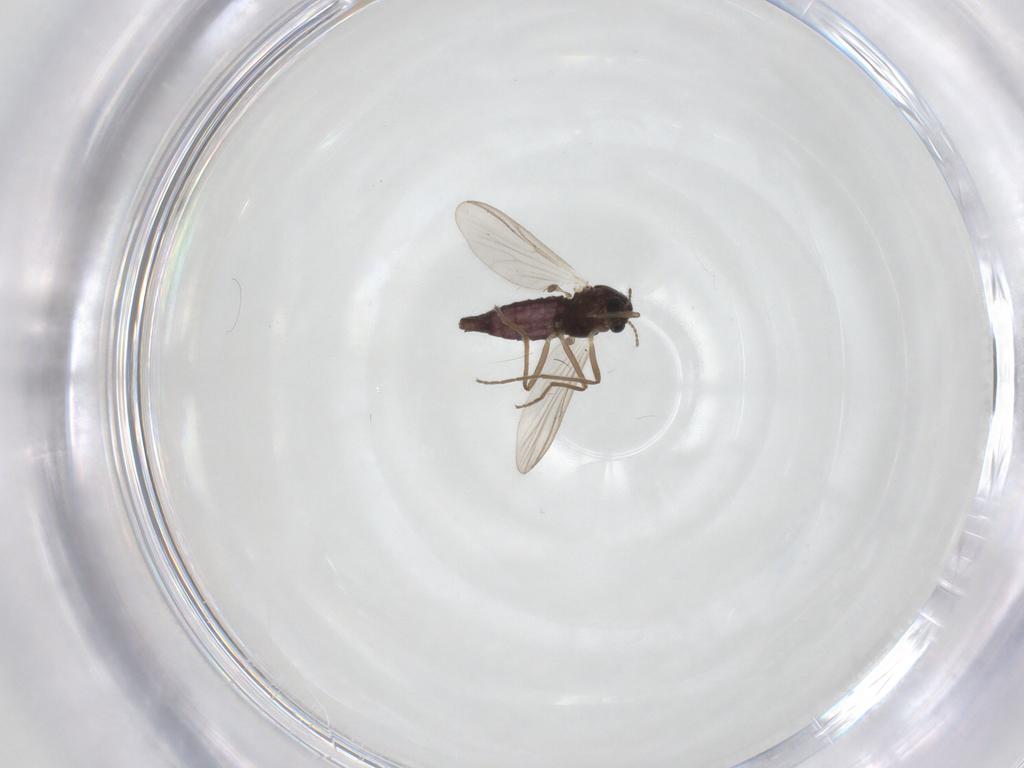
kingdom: Animalia
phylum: Arthropoda
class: Insecta
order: Diptera
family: Chironomidae
